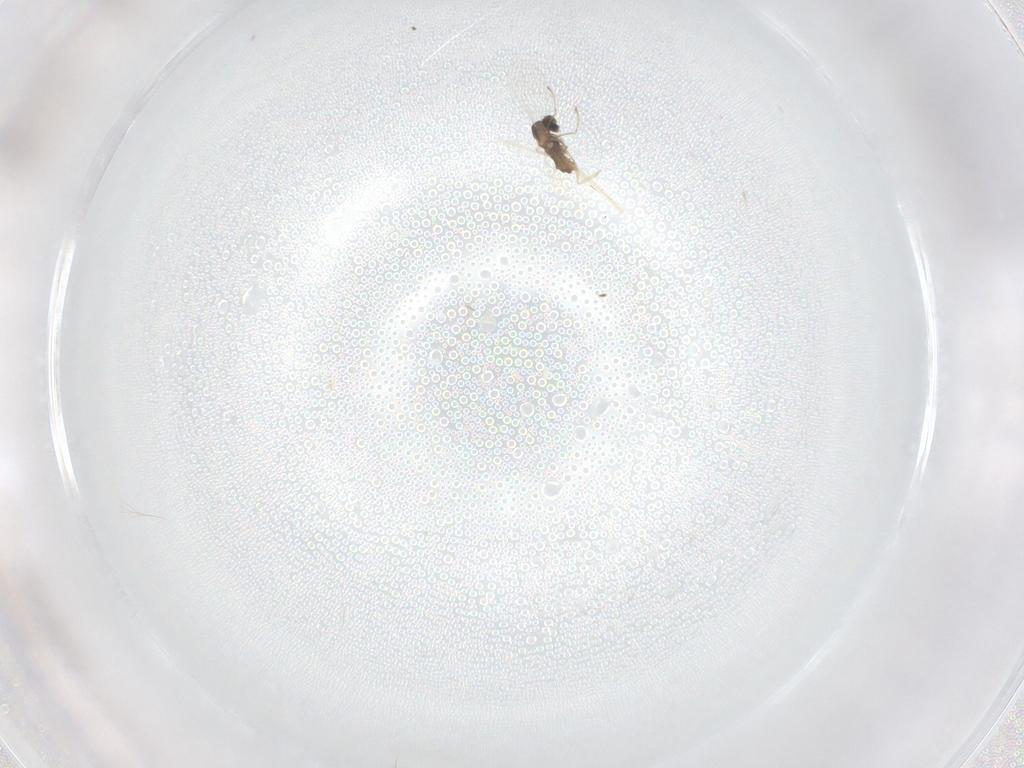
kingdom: Animalia
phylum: Arthropoda
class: Insecta
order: Diptera
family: Cecidomyiidae
